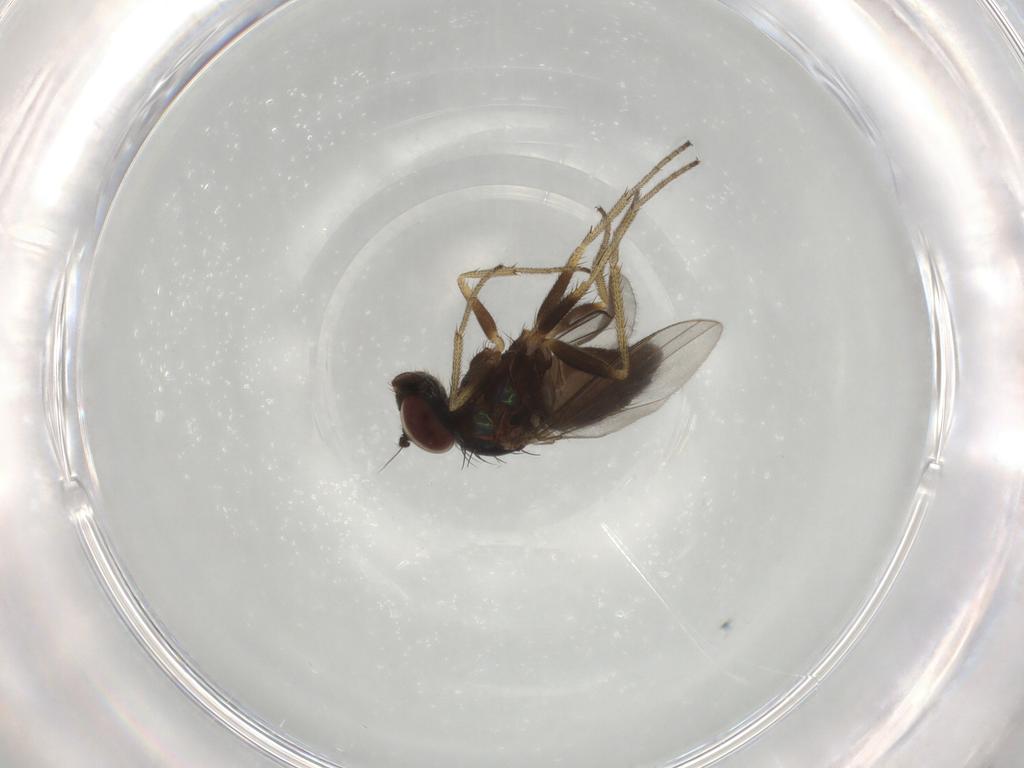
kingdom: Animalia
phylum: Arthropoda
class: Insecta
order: Diptera
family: Dolichopodidae
